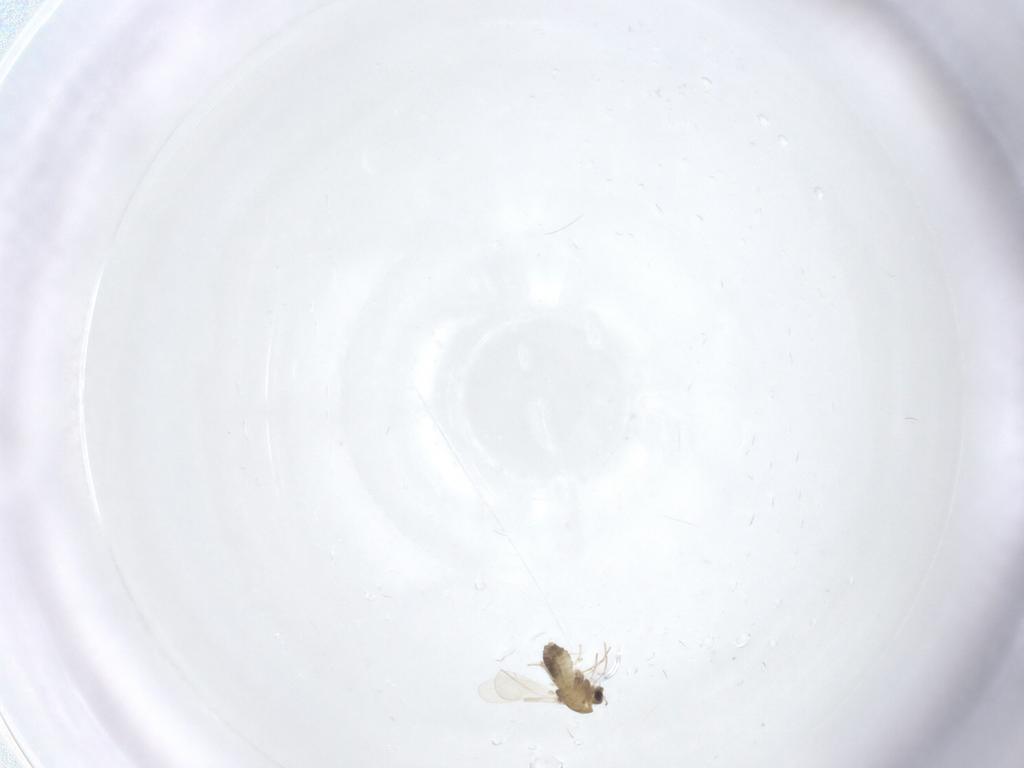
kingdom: Animalia
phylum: Arthropoda
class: Insecta
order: Diptera
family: Chironomidae
